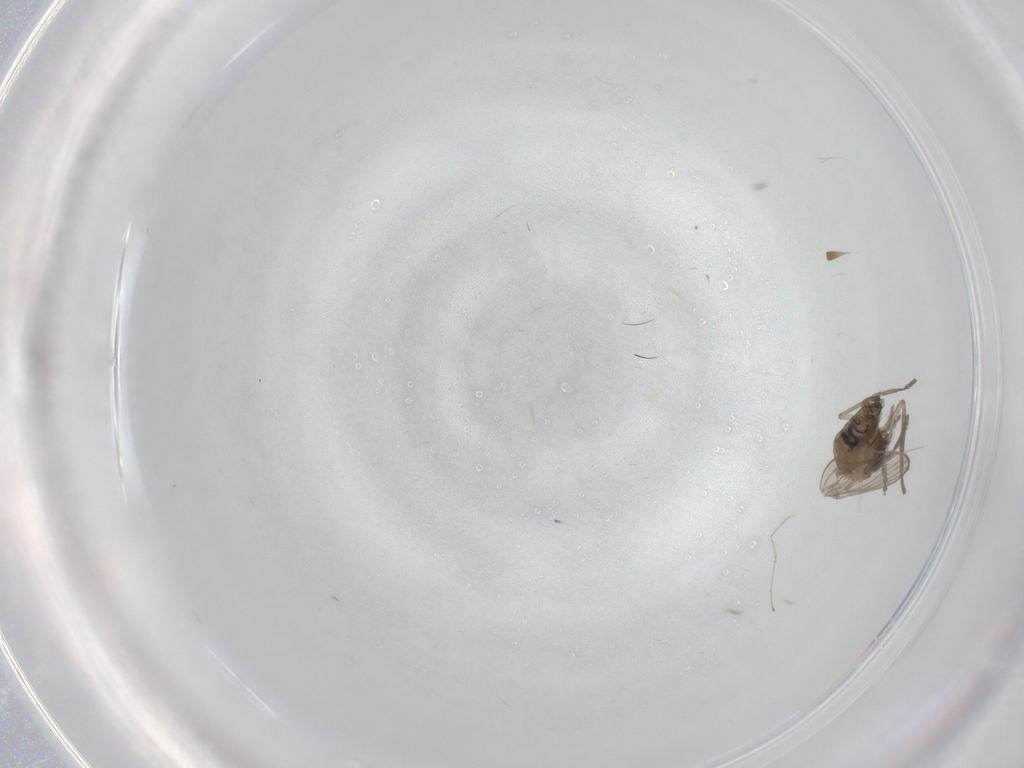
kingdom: Animalia
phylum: Arthropoda
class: Insecta
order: Diptera
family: Psychodidae
